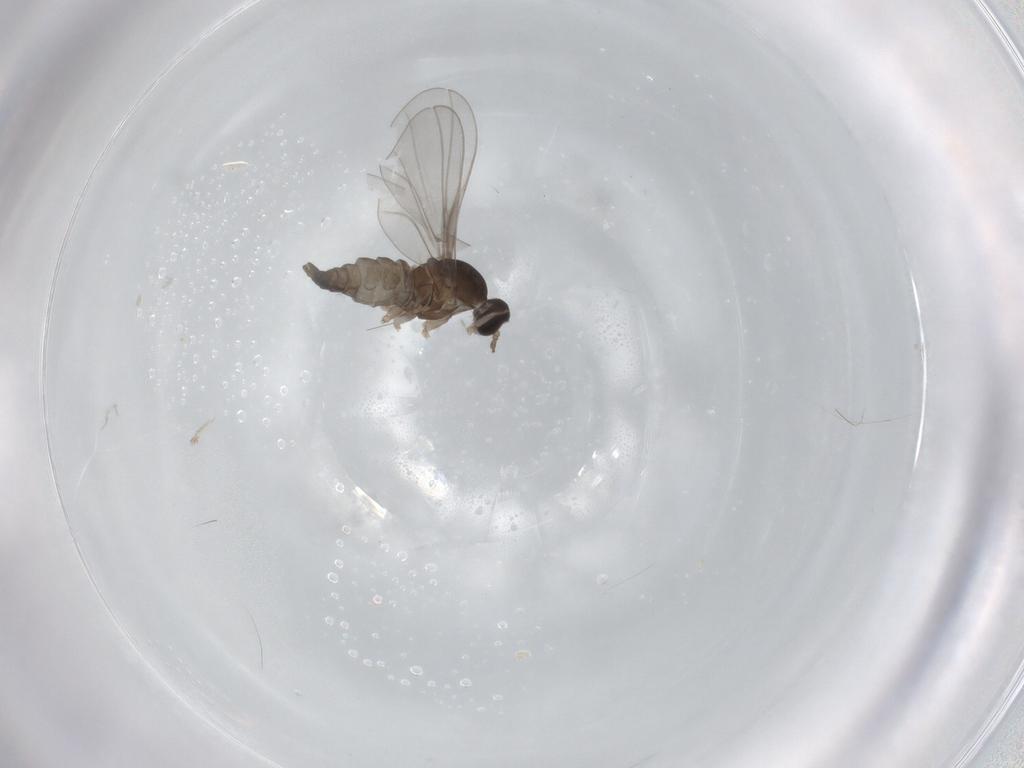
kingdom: Animalia
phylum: Arthropoda
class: Insecta
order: Diptera
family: Cecidomyiidae
